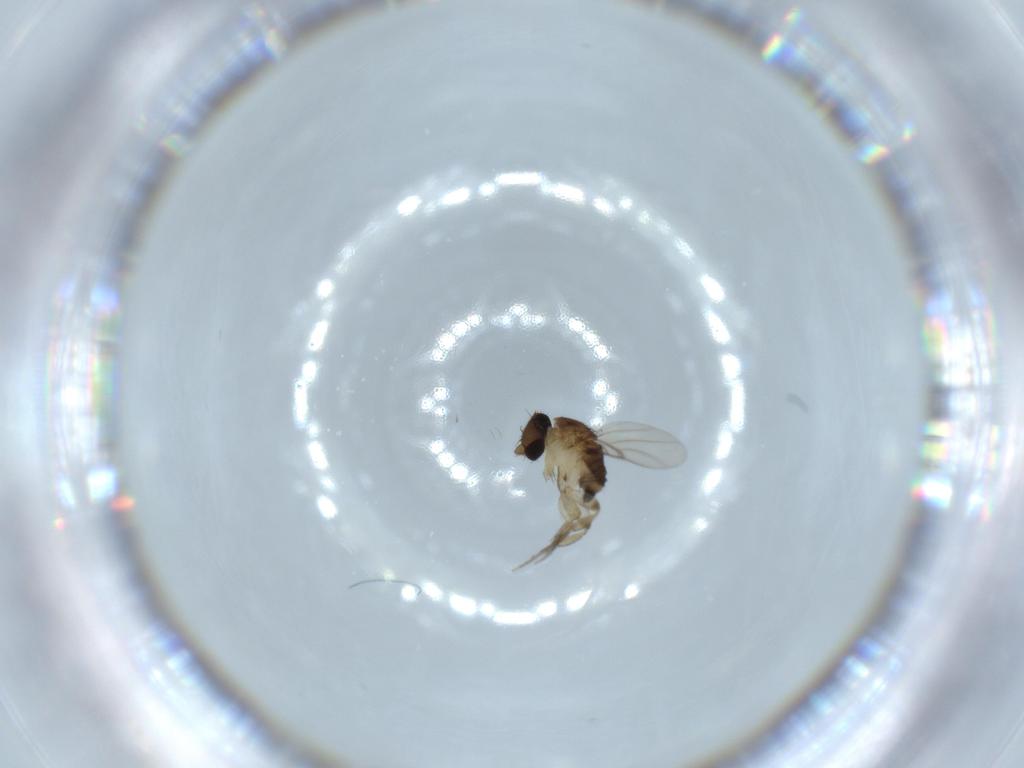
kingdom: Animalia
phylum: Arthropoda
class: Insecta
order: Diptera
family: Phoridae
